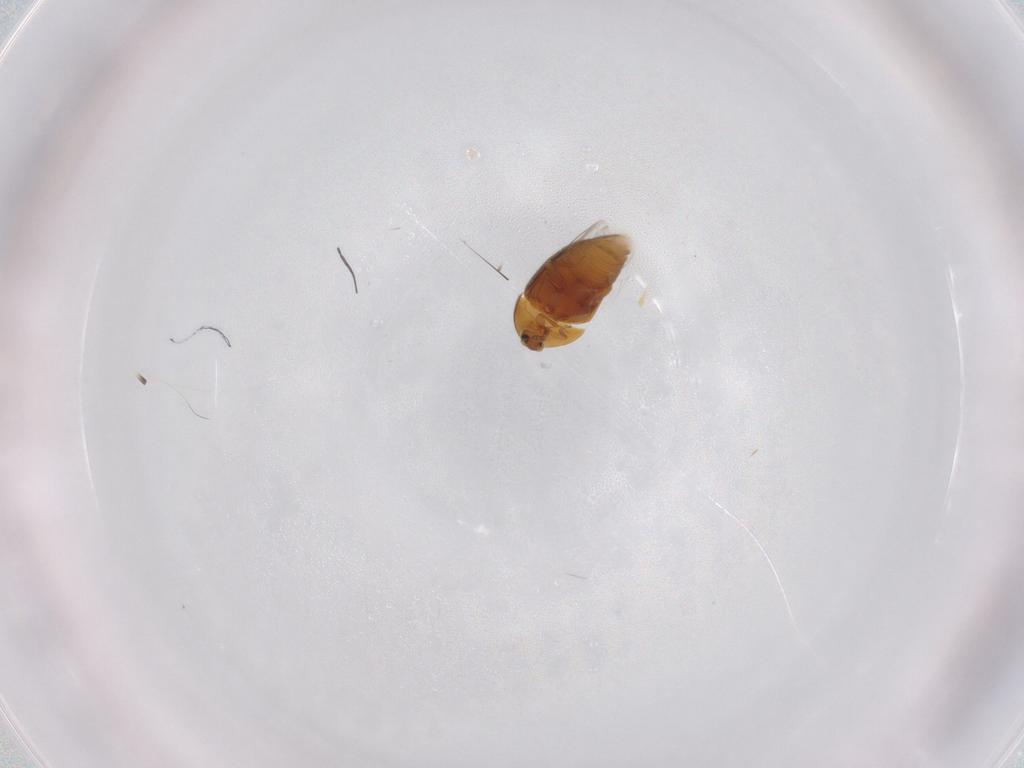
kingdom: Animalia
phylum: Arthropoda
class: Insecta
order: Coleoptera
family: Corylophidae
